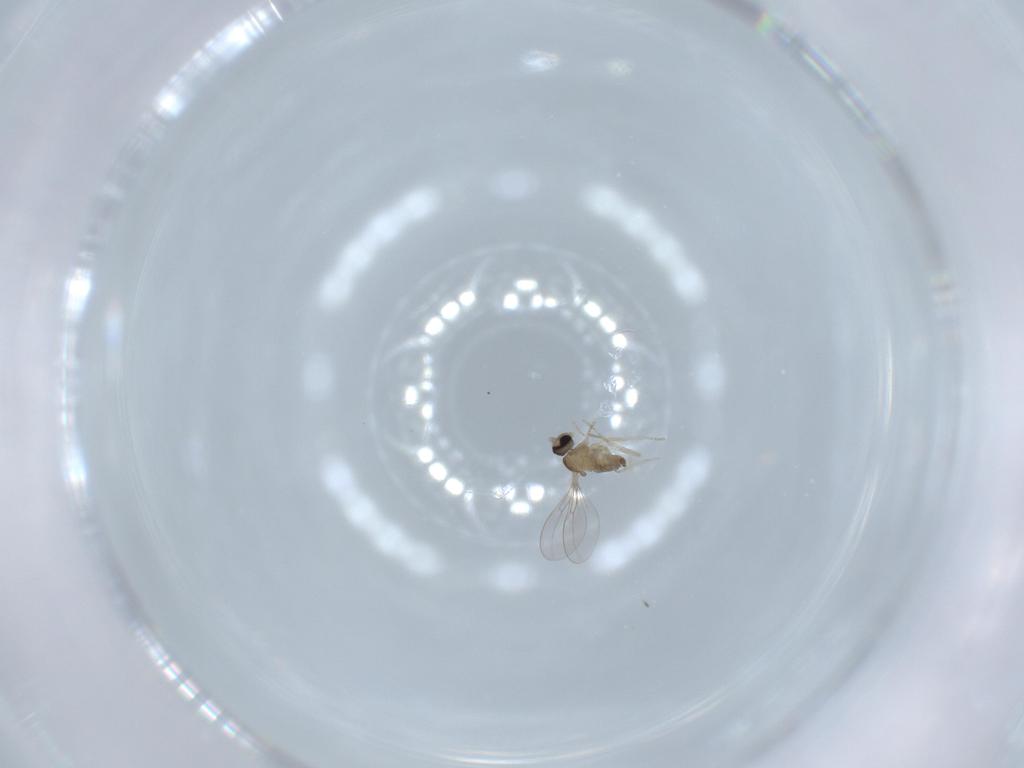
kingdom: Animalia
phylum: Arthropoda
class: Insecta
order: Diptera
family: Cecidomyiidae
